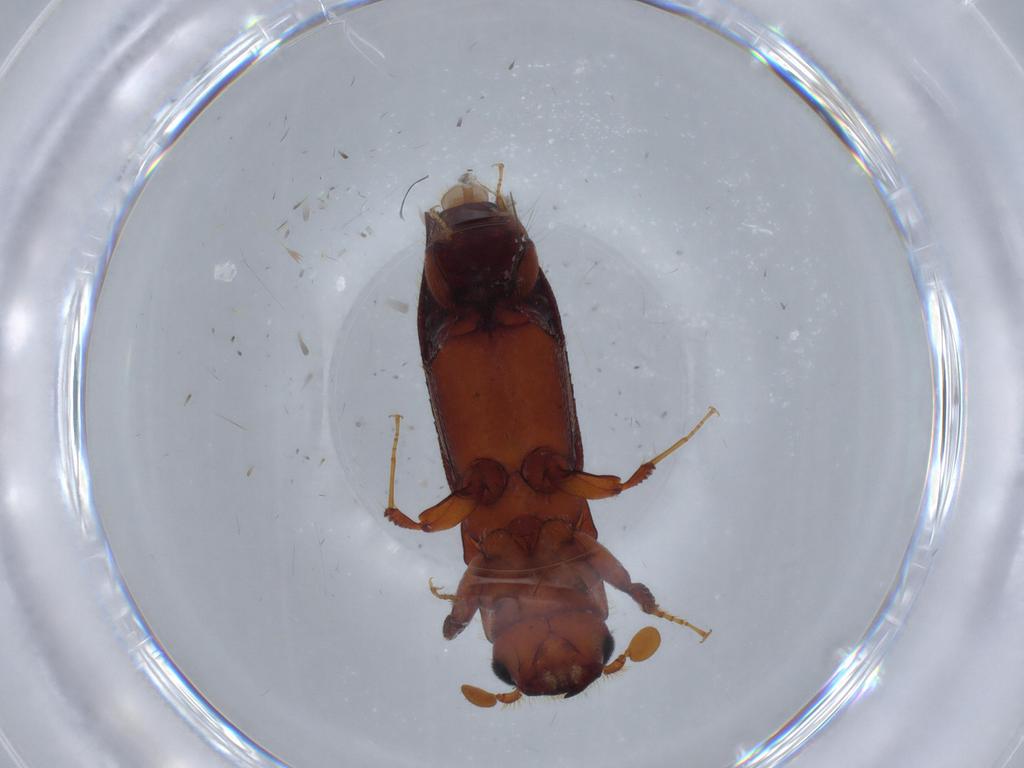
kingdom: Animalia
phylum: Arthropoda
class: Insecta
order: Coleoptera
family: Curculionidae
